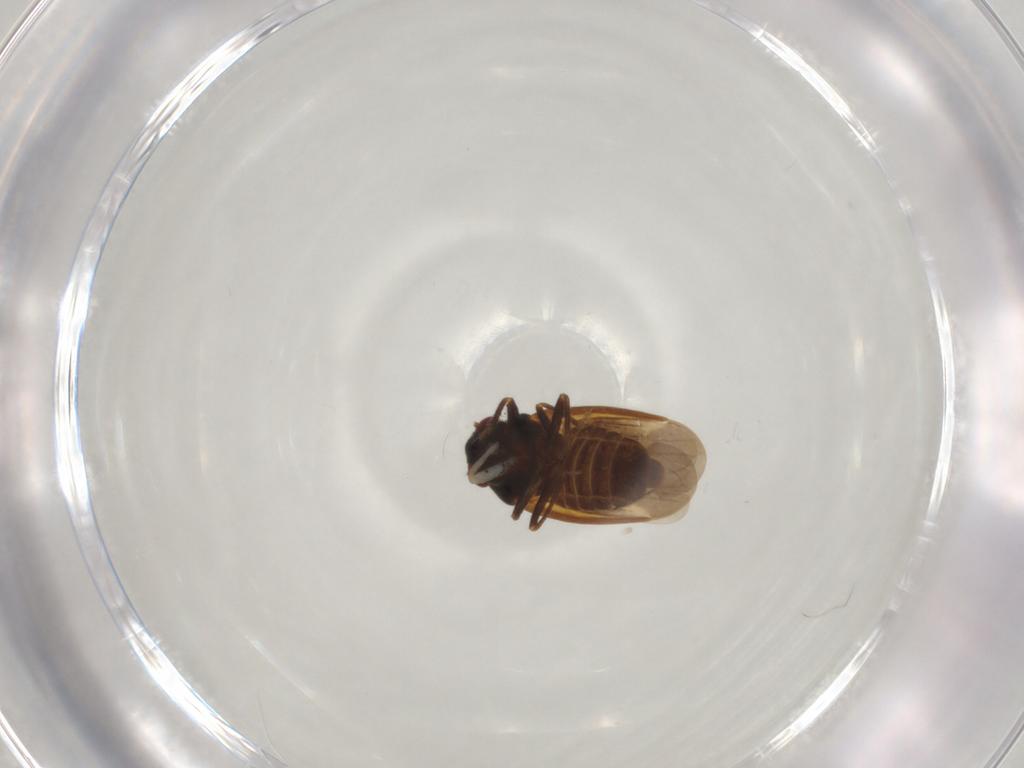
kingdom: Animalia
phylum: Arthropoda
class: Insecta
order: Hemiptera
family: Schizopteridae
